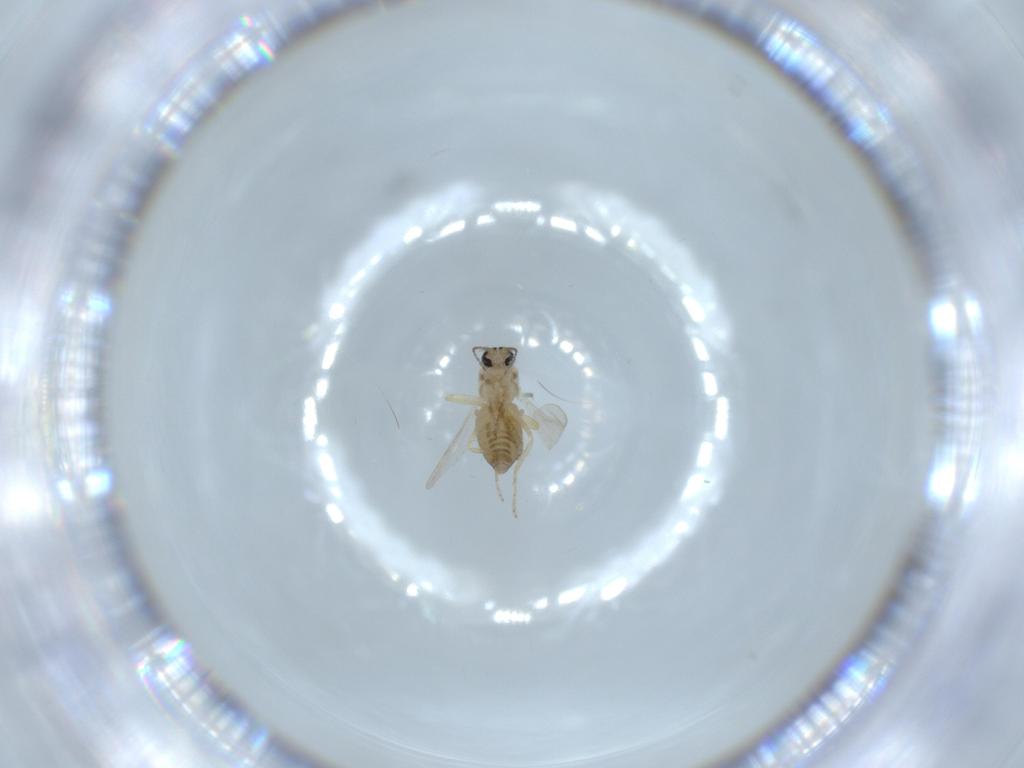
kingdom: Animalia
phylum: Arthropoda
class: Insecta
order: Diptera
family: Ceratopogonidae
